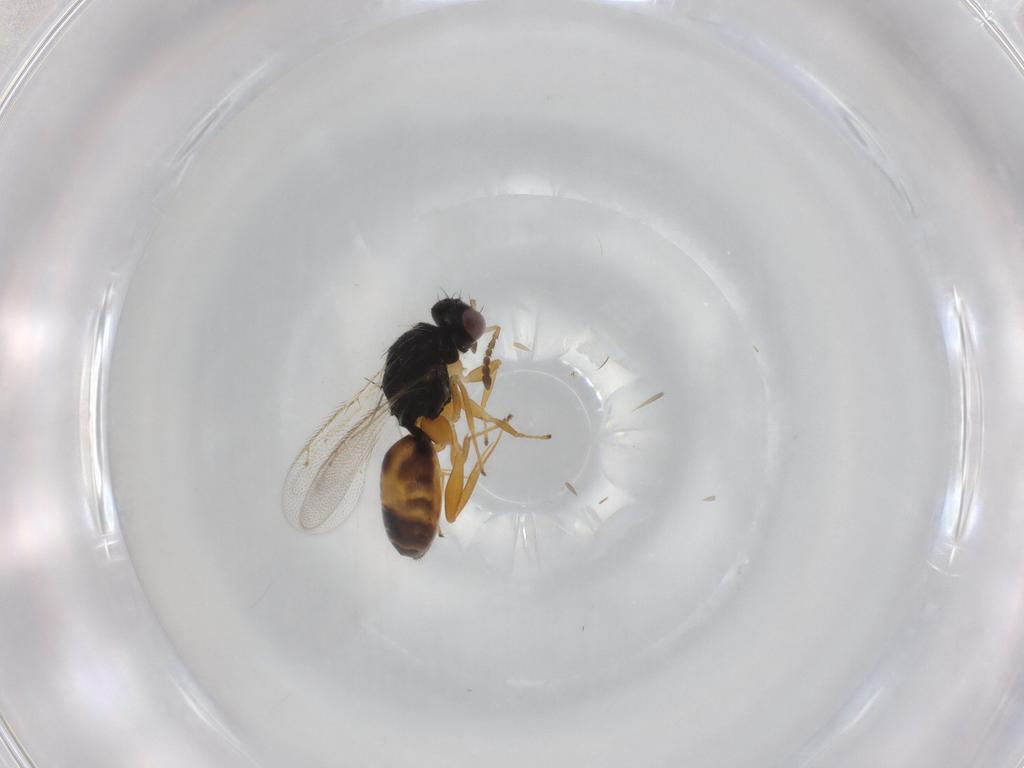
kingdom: Animalia
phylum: Arthropoda
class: Insecta
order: Hymenoptera
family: Eulophidae
